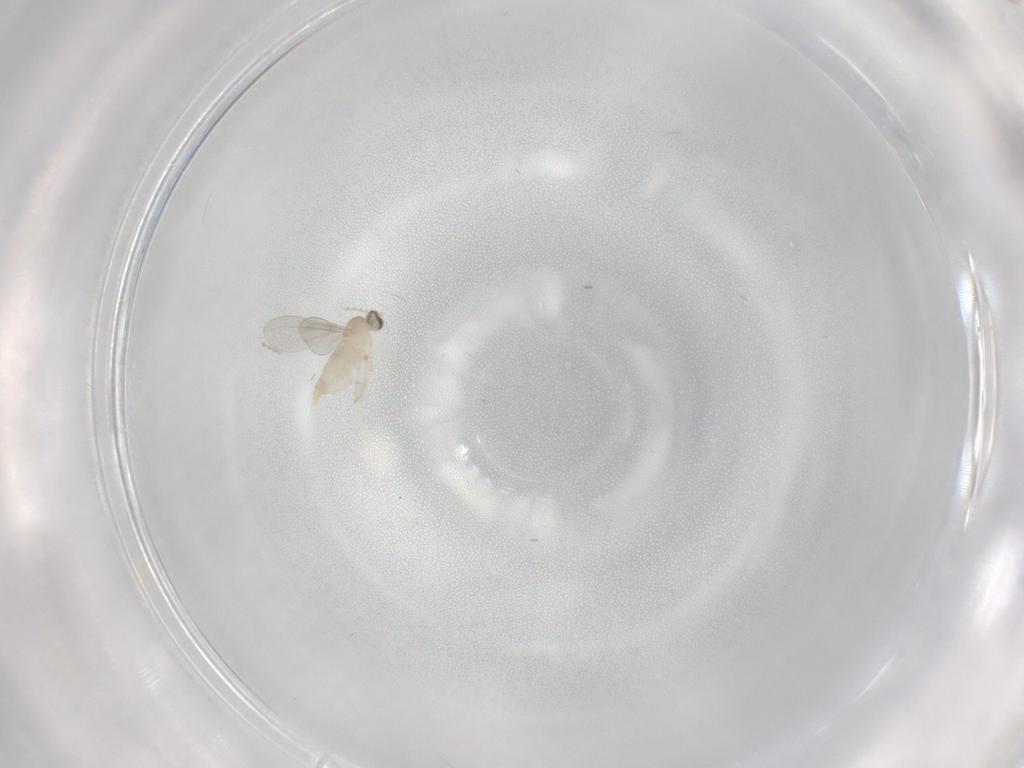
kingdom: Animalia
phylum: Arthropoda
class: Insecta
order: Diptera
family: Cecidomyiidae
